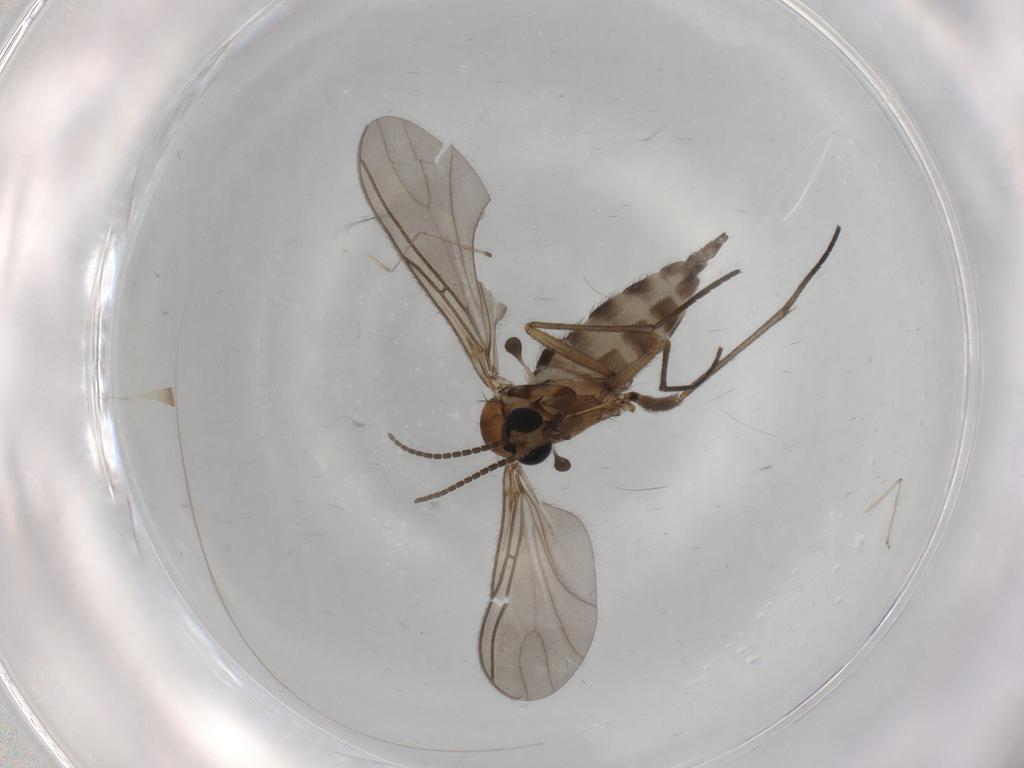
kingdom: Animalia
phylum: Arthropoda
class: Insecta
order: Diptera
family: Sciaridae
